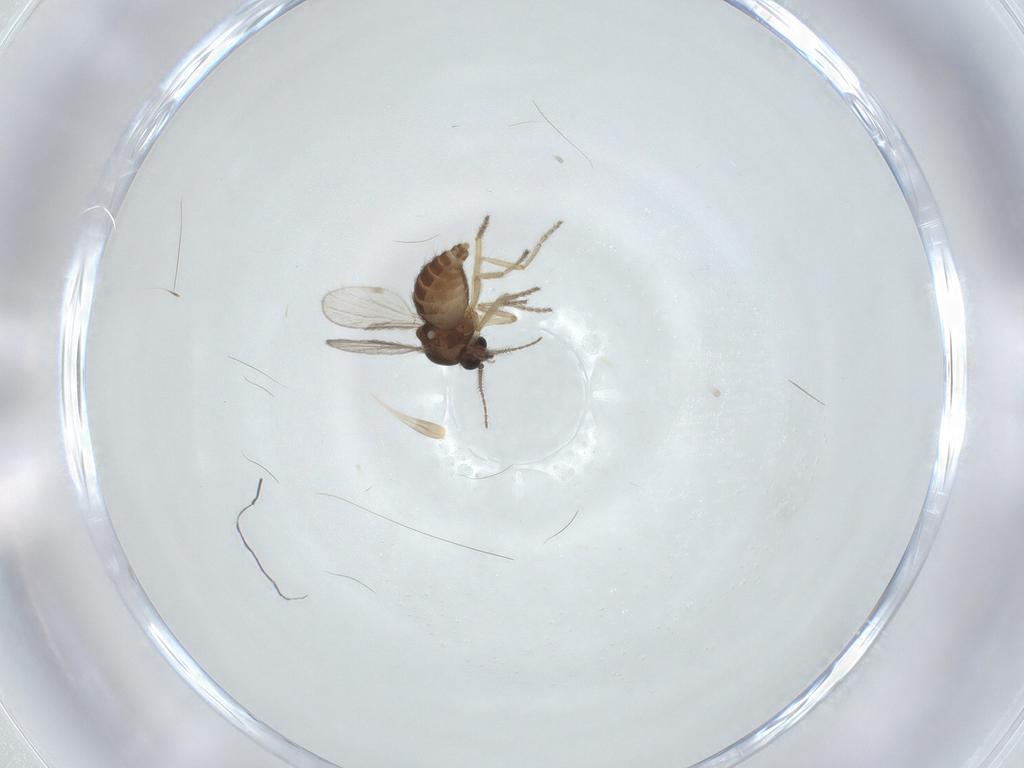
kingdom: Animalia
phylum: Arthropoda
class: Insecta
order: Diptera
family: Ceratopogonidae
